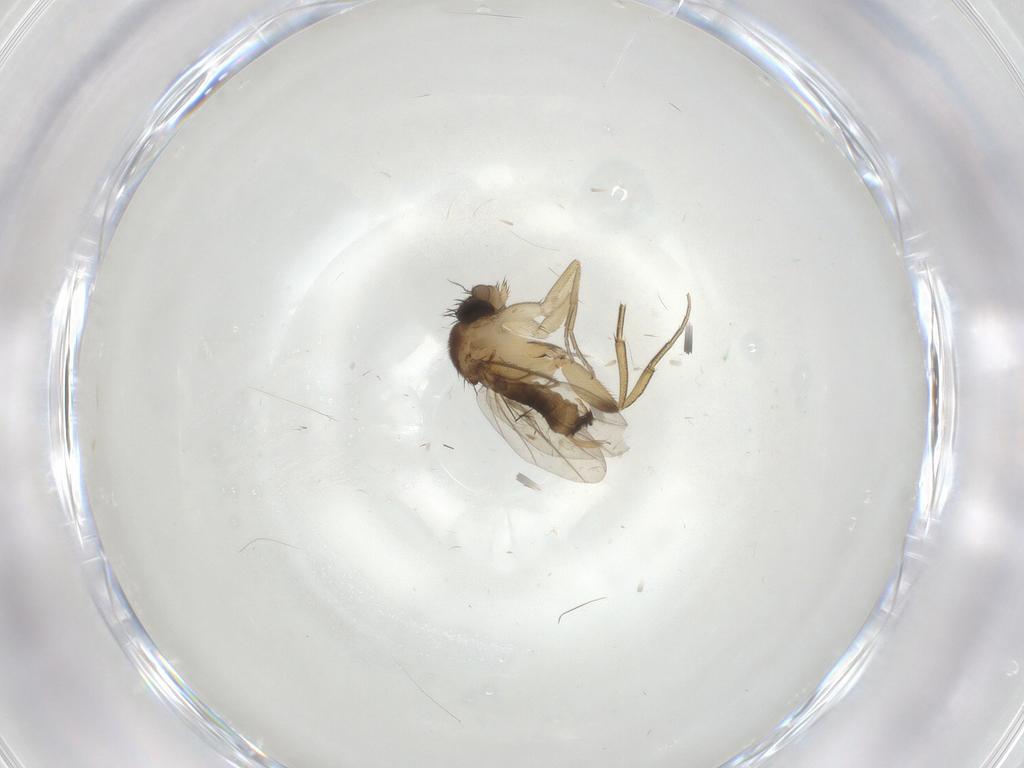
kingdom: Animalia
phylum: Arthropoda
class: Insecta
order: Diptera
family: Phoridae
